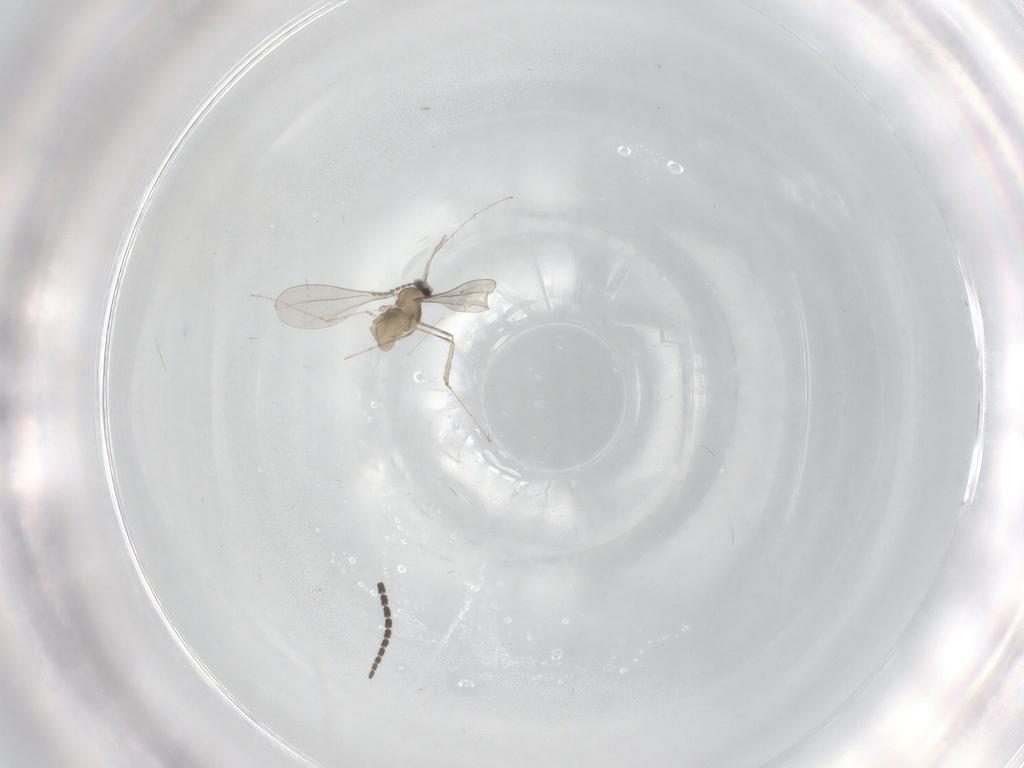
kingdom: Animalia
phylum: Arthropoda
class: Insecta
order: Diptera
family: Sciaridae
